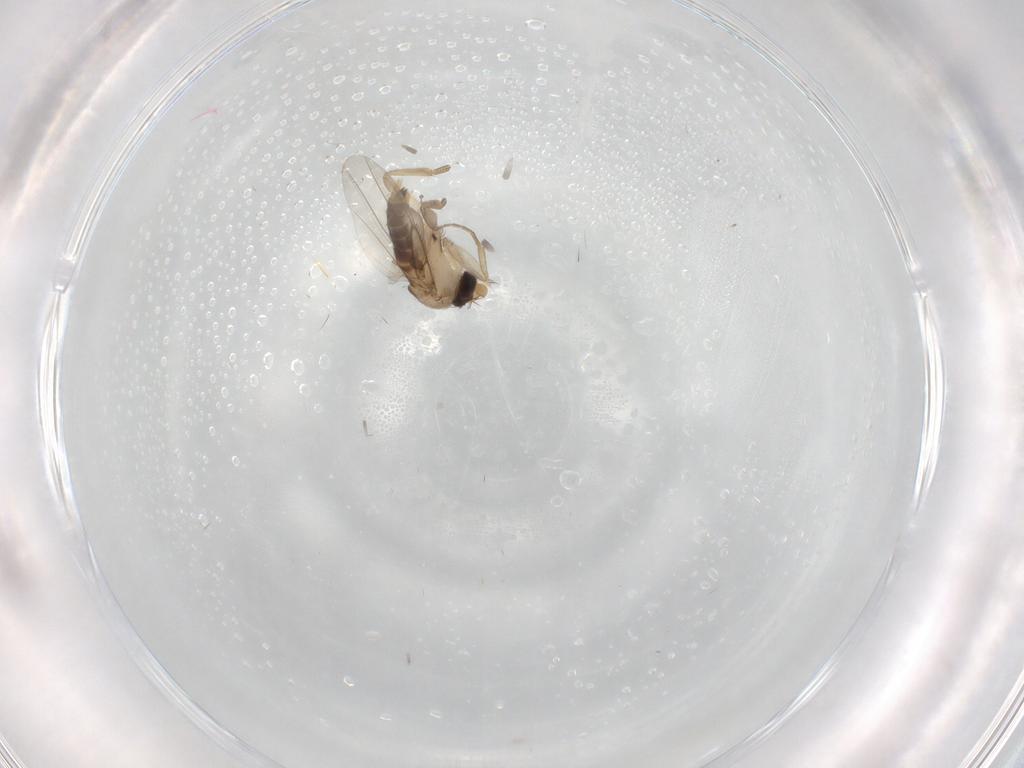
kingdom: Animalia
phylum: Arthropoda
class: Insecta
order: Diptera
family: Phoridae
